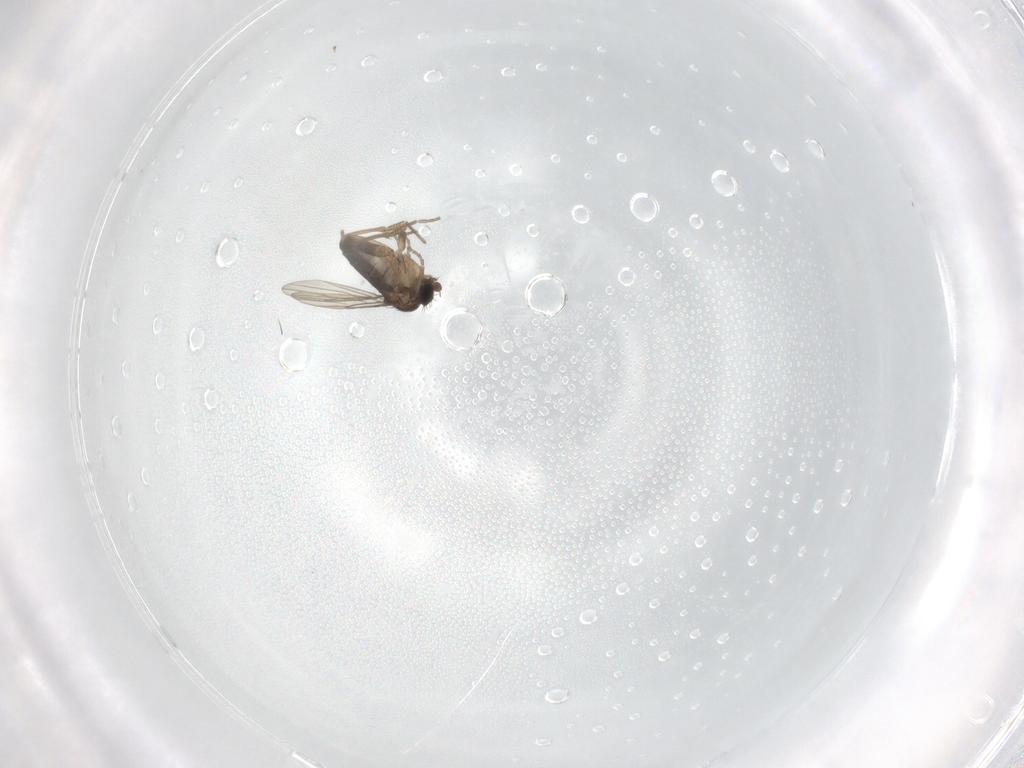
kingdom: Animalia
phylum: Arthropoda
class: Insecta
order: Diptera
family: Phoridae
